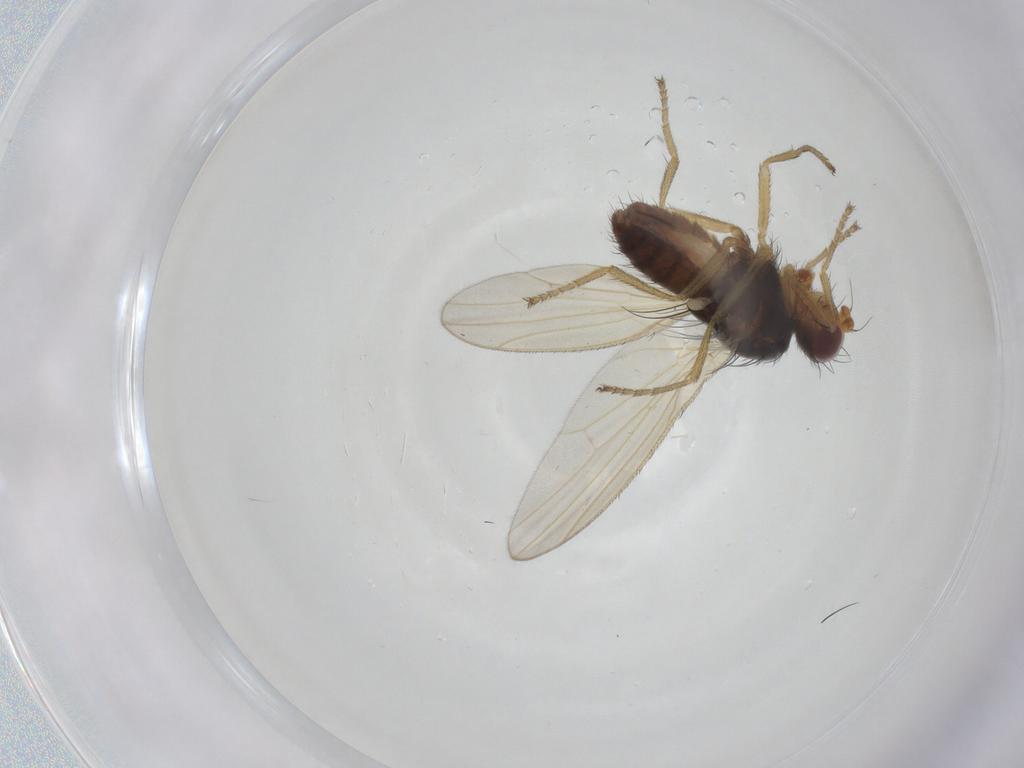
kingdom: Animalia
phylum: Arthropoda
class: Insecta
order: Diptera
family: Heleomyzidae
